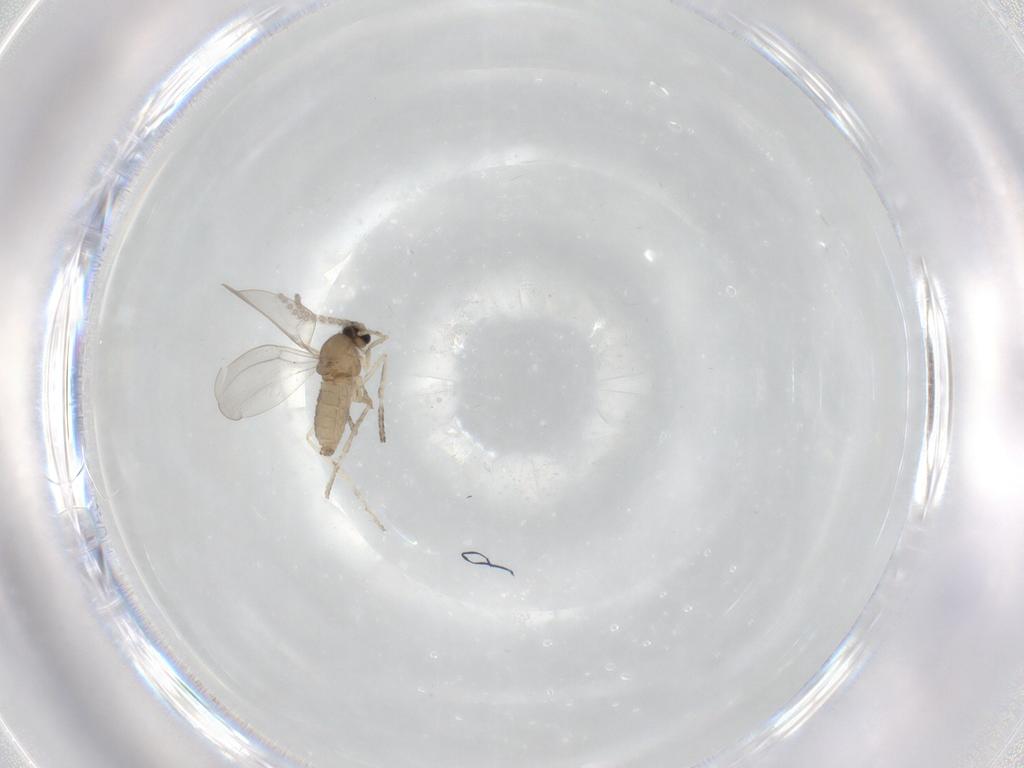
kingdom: Animalia
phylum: Arthropoda
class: Insecta
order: Diptera
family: Cecidomyiidae
